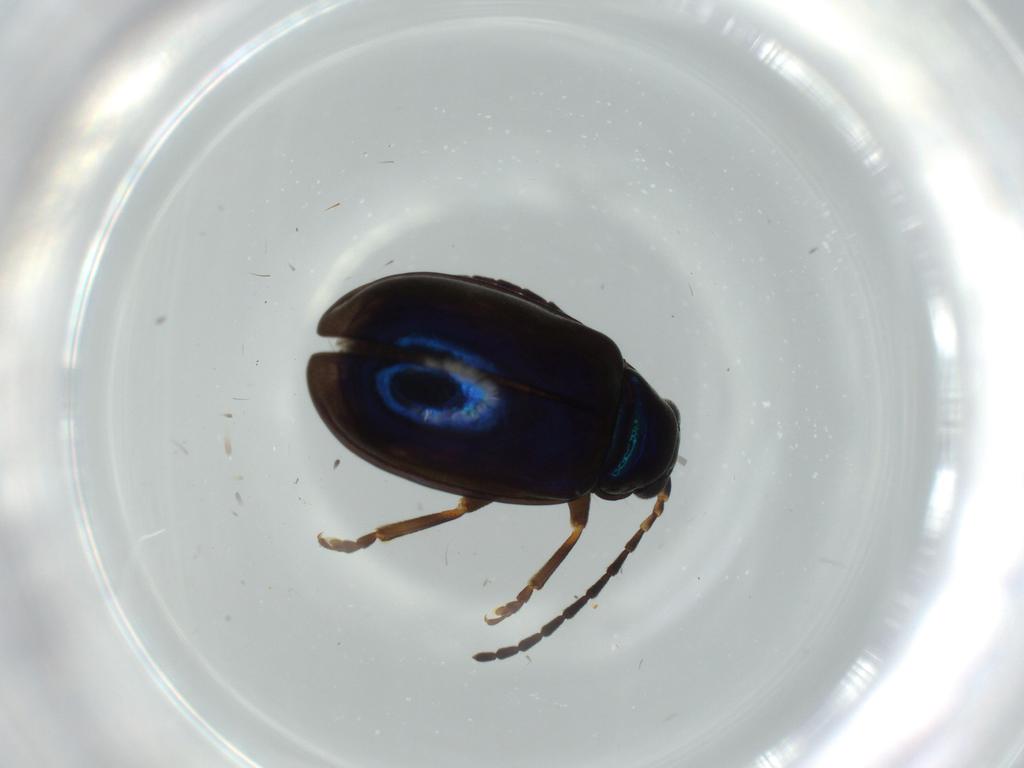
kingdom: Animalia
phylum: Arthropoda
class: Insecta
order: Coleoptera
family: Chrysomelidae
